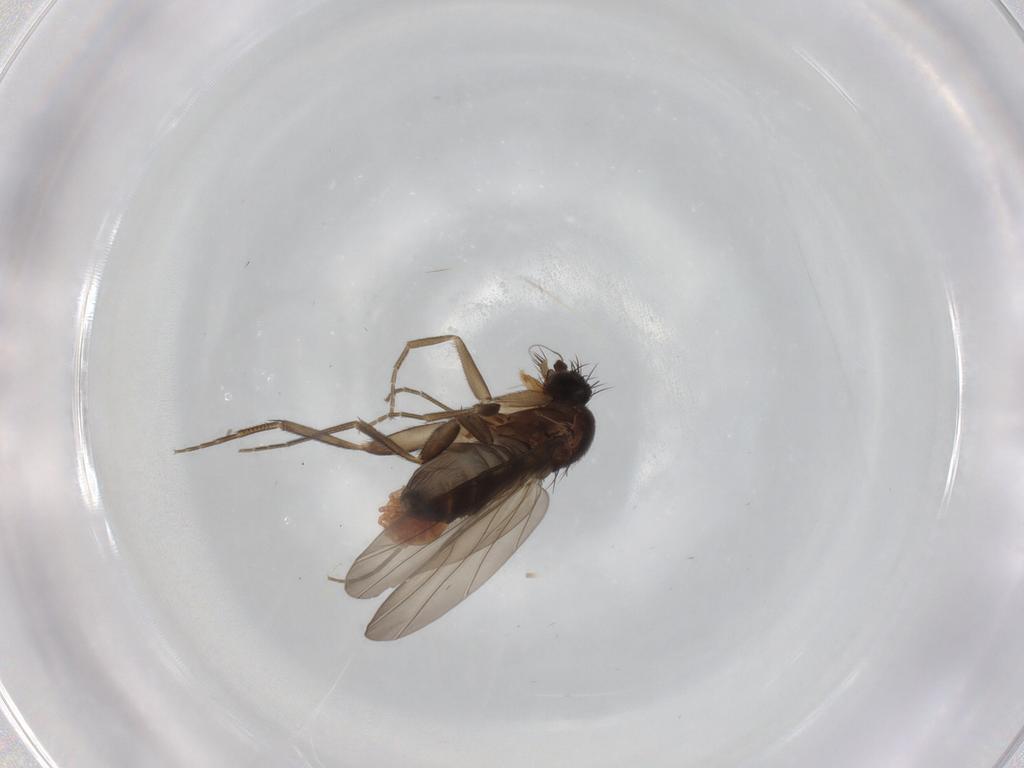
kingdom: Animalia
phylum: Arthropoda
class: Insecta
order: Diptera
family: Phoridae
